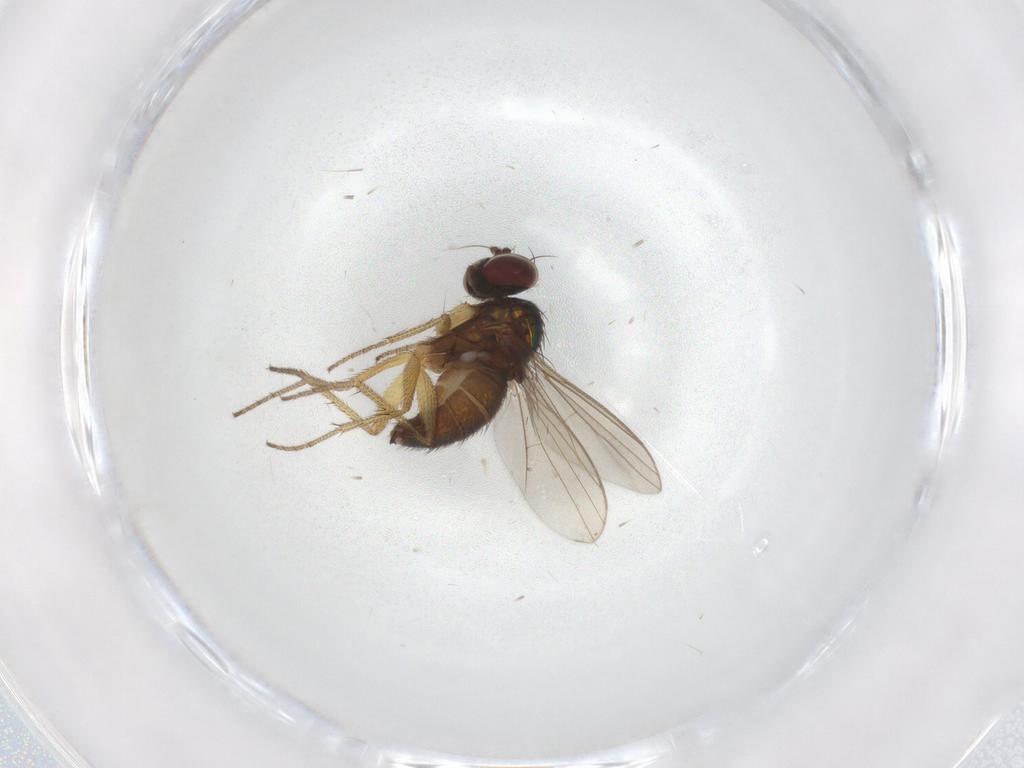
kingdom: Animalia
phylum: Arthropoda
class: Insecta
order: Diptera
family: Dolichopodidae
